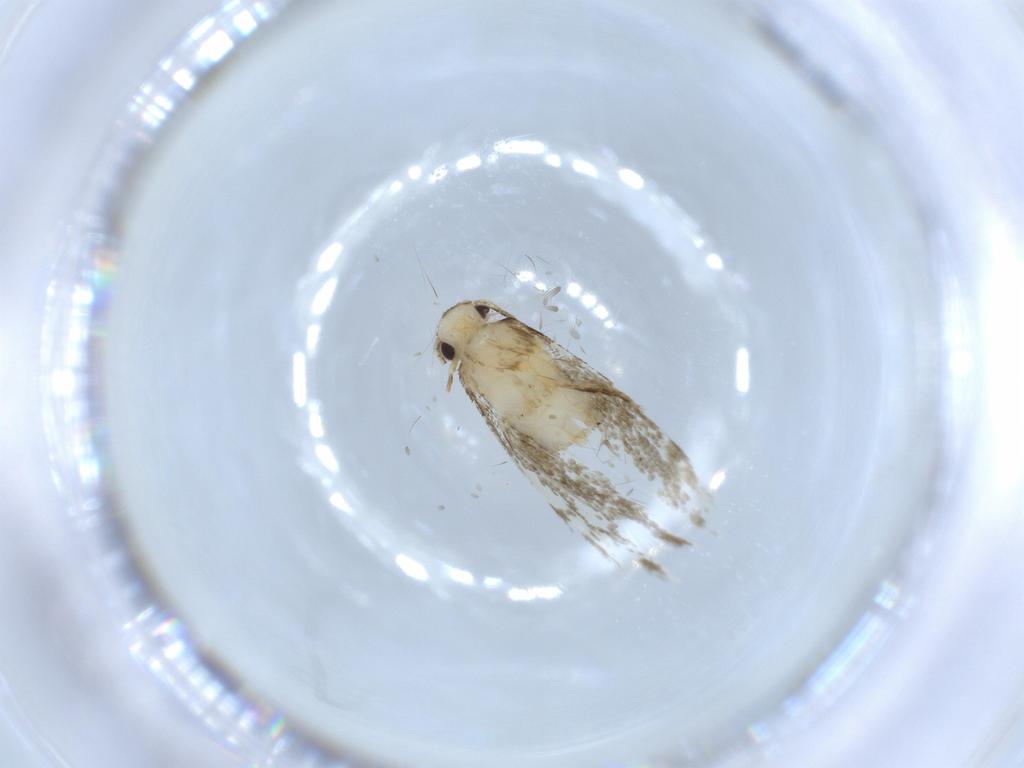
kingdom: Animalia
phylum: Arthropoda
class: Insecta
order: Lepidoptera
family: Tineidae
